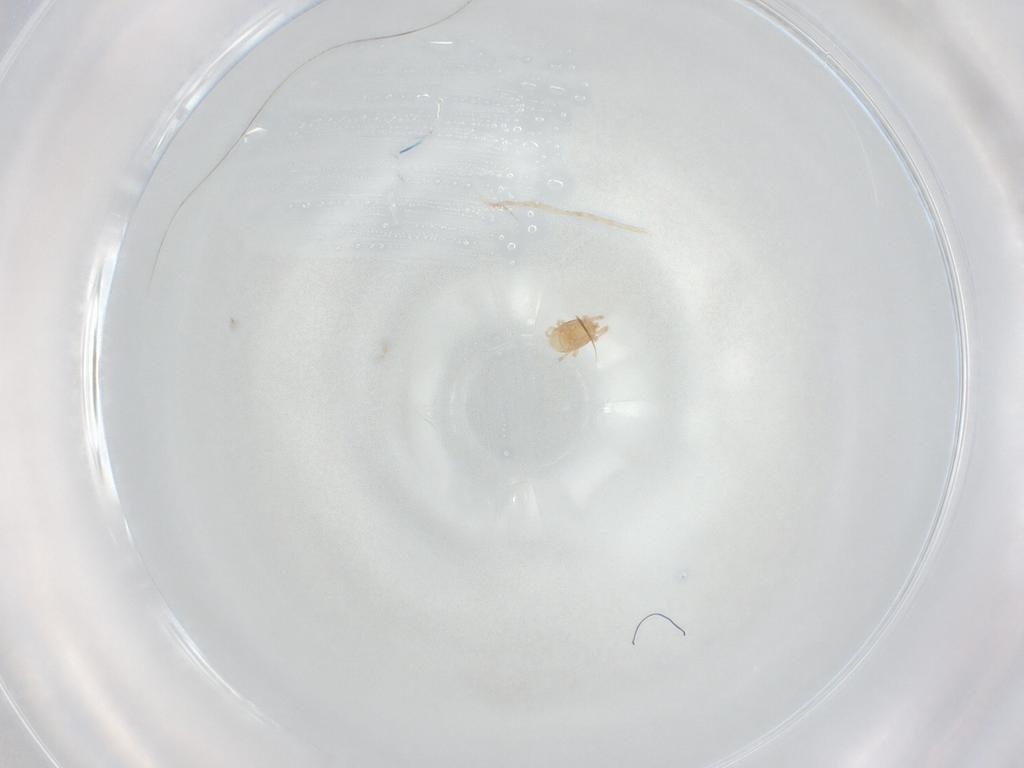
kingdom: Animalia
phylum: Arthropoda
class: Arachnida
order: Mesostigmata
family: Melicharidae
